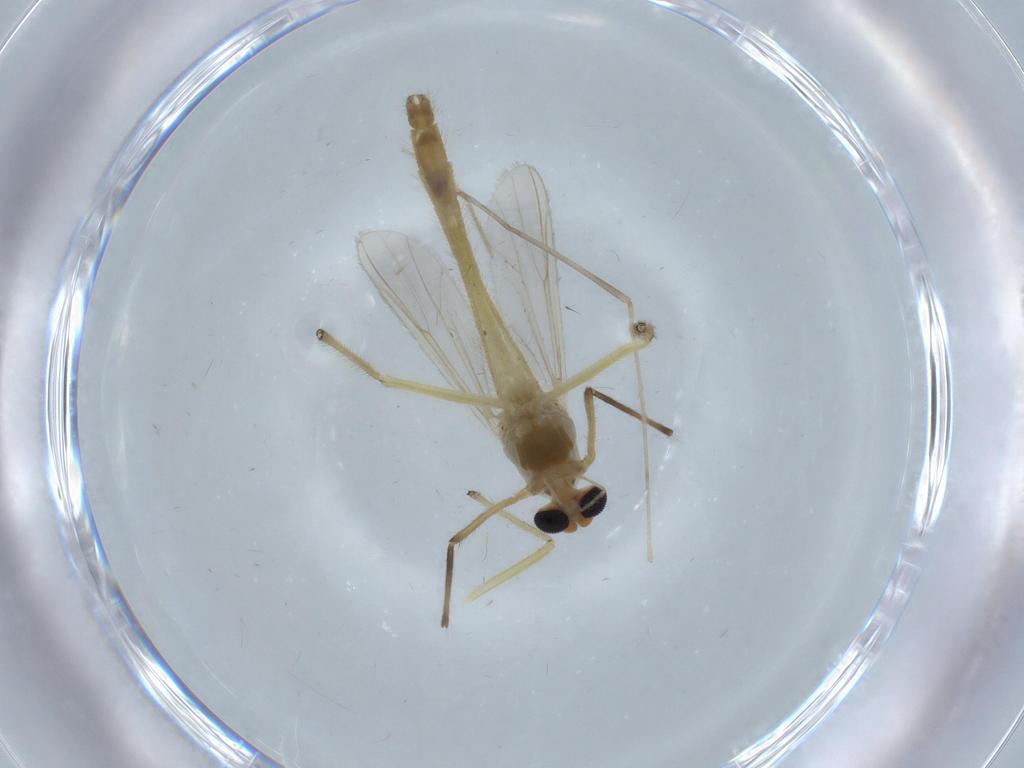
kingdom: Animalia
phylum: Arthropoda
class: Insecta
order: Diptera
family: Chironomidae
